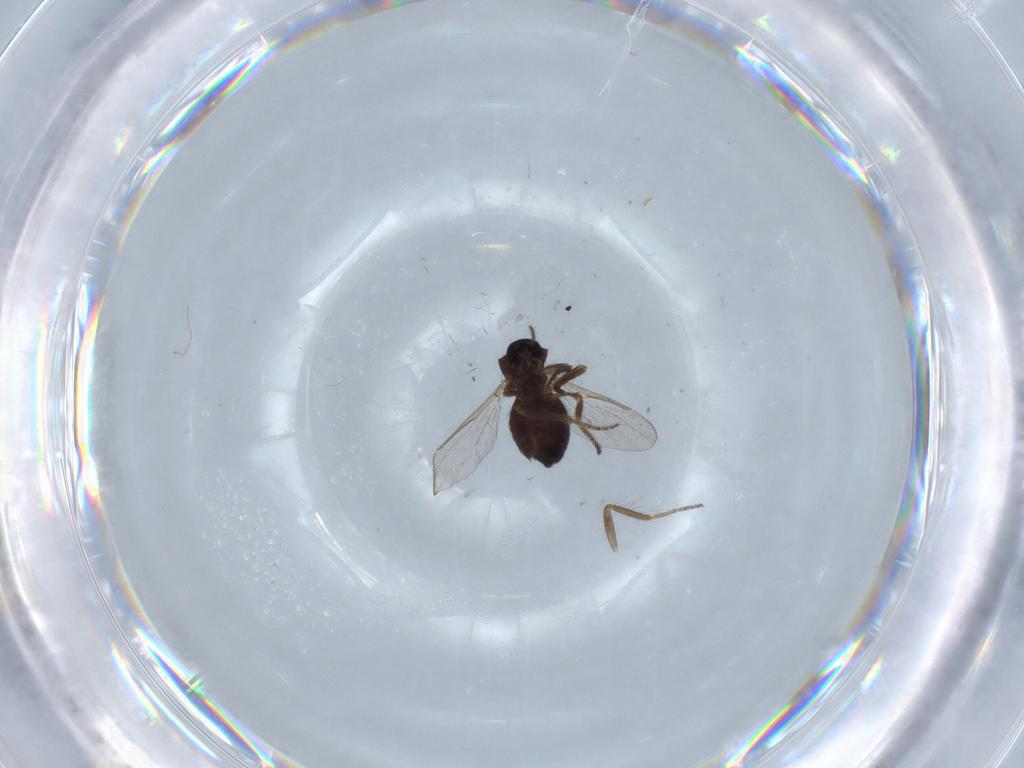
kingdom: Animalia
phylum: Arthropoda
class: Insecta
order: Diptera
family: Ceratopogonidae
